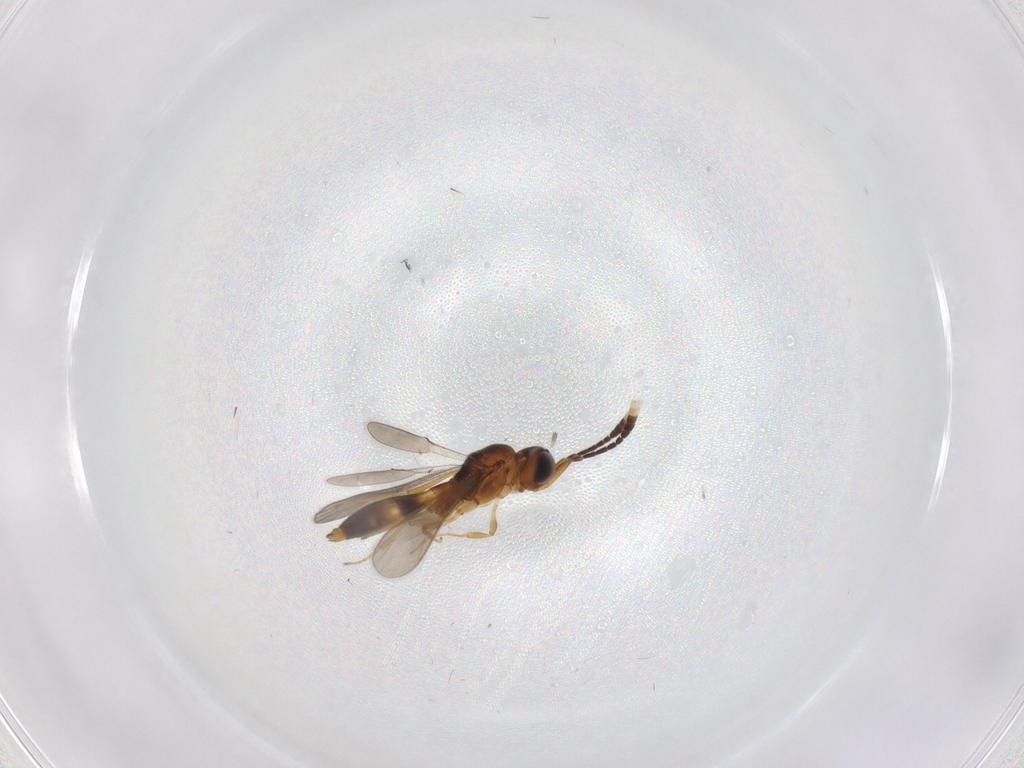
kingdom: Animalia
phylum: Arthropoda
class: Insecta
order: Hymenoptera
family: Scelionidae
